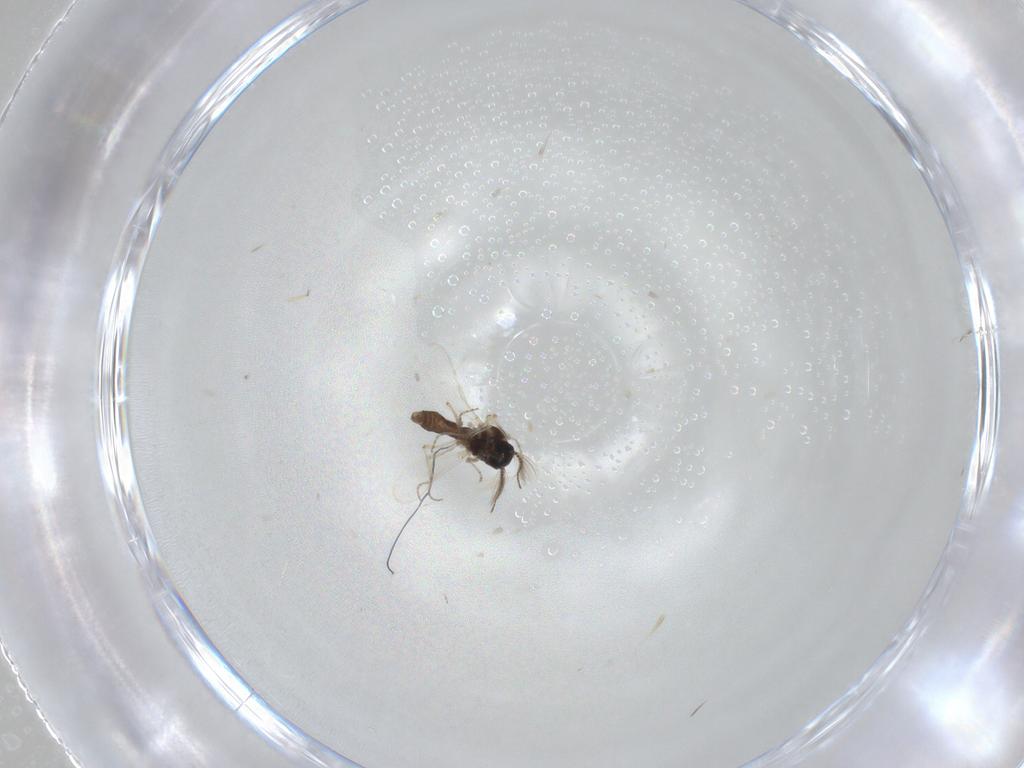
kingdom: Animalia
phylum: Arthropoda
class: Insecta
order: Diptera
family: Ceratopogonidae
